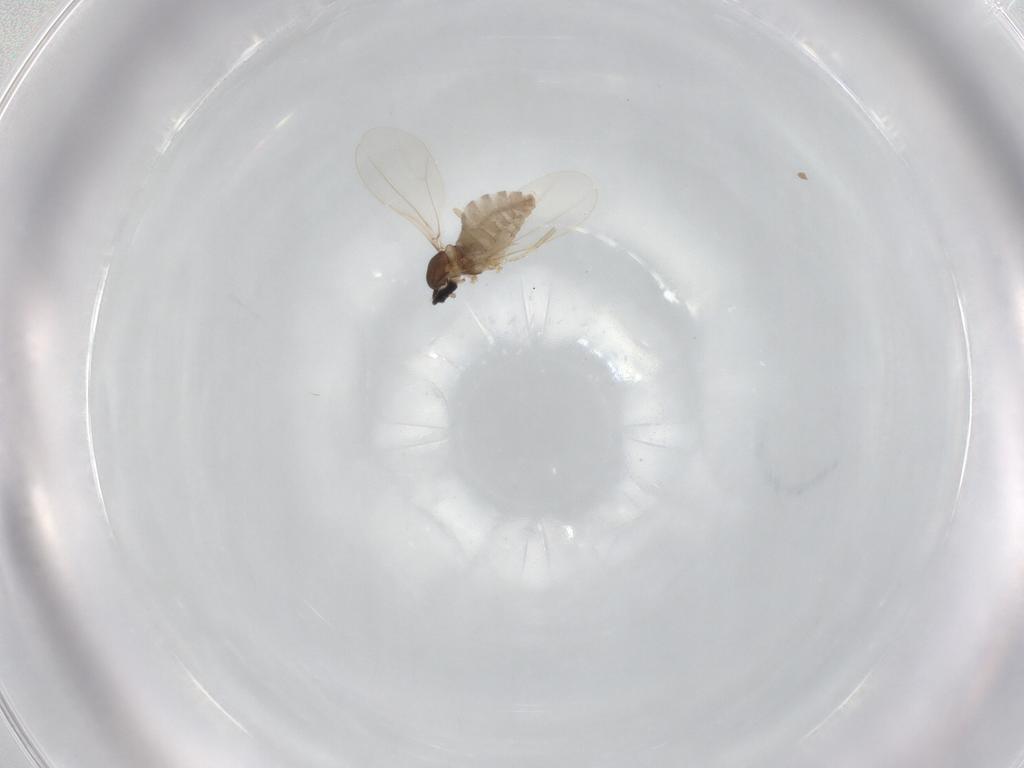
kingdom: Animalia
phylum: Arthropoda
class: Insecta
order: Diptera
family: Cecidomyiidae
